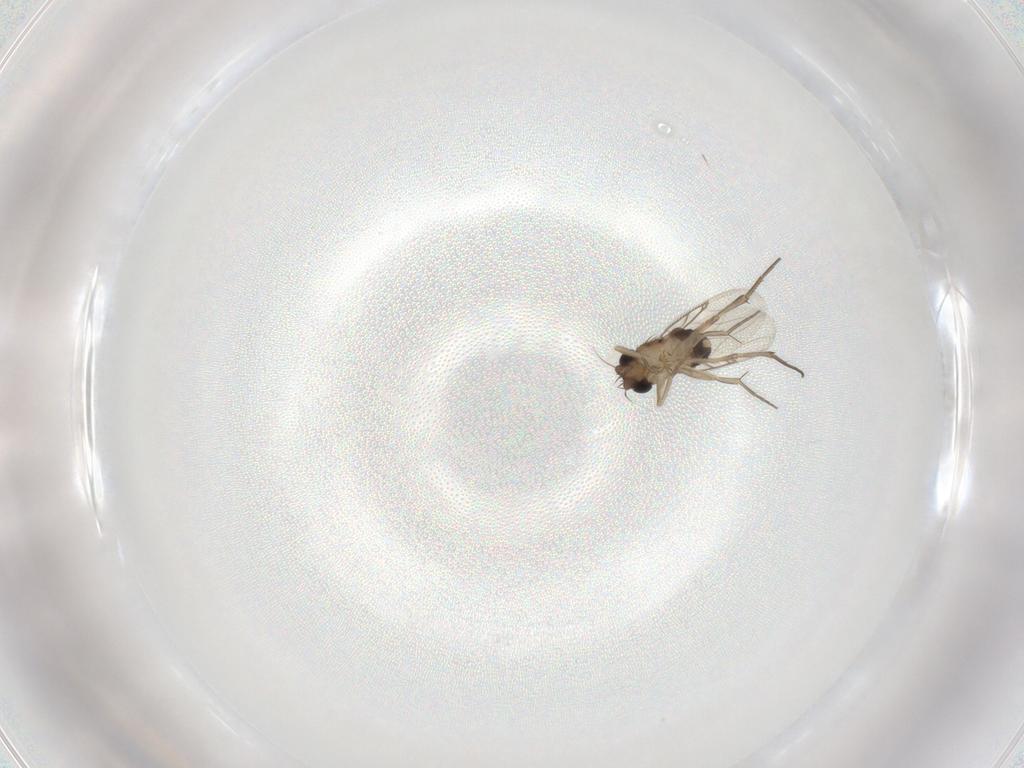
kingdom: Animalia
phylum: Arthropoda
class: Insecta
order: Diptera
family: Phoridae
